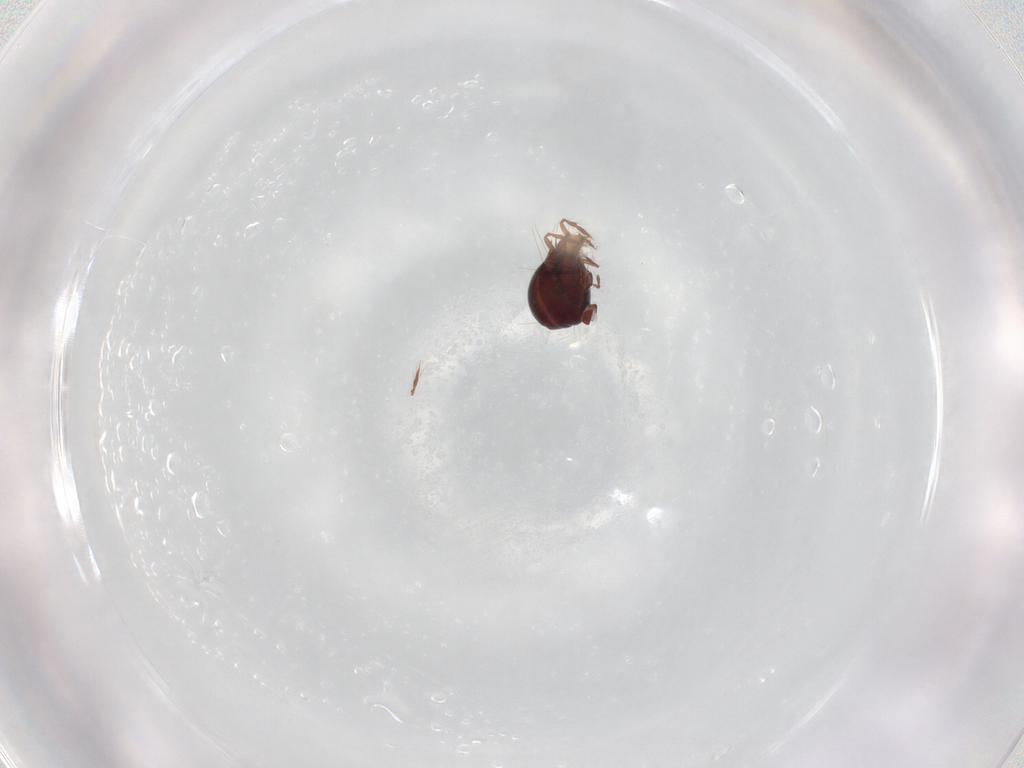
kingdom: Animalia
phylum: Arthropoda
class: Arachnida
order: Sarcoptiformes
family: Ceratoppiidae
